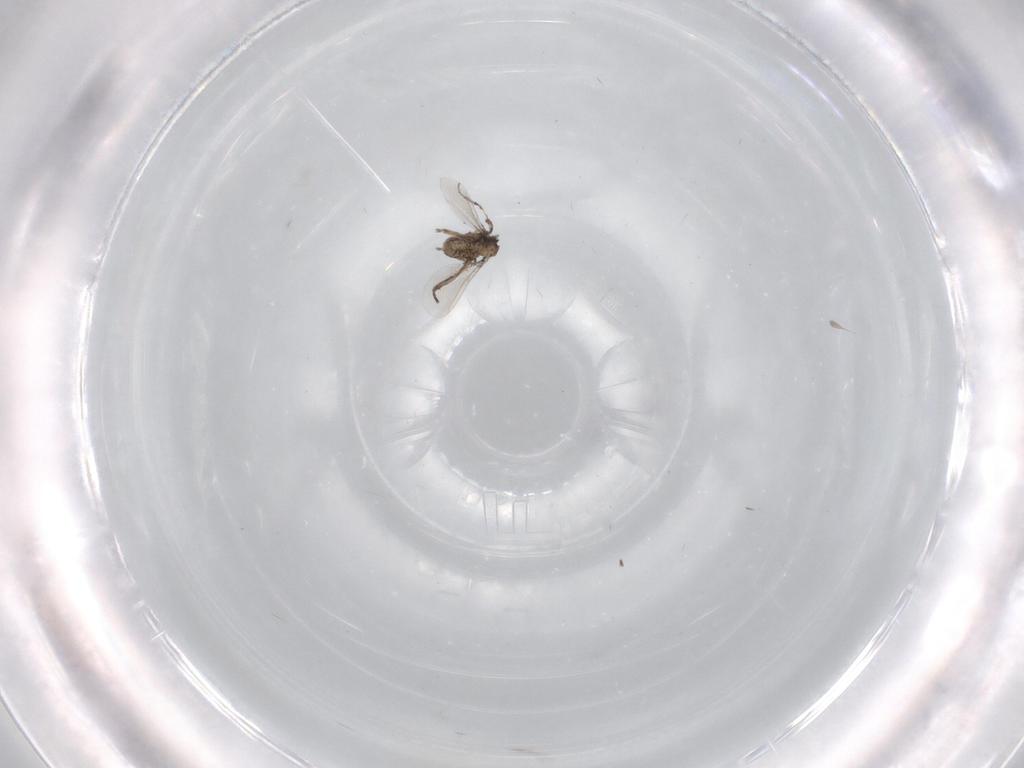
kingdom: Animalia
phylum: Arthropoda
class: Insecta
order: Diptera
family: Cecidomyiidae
